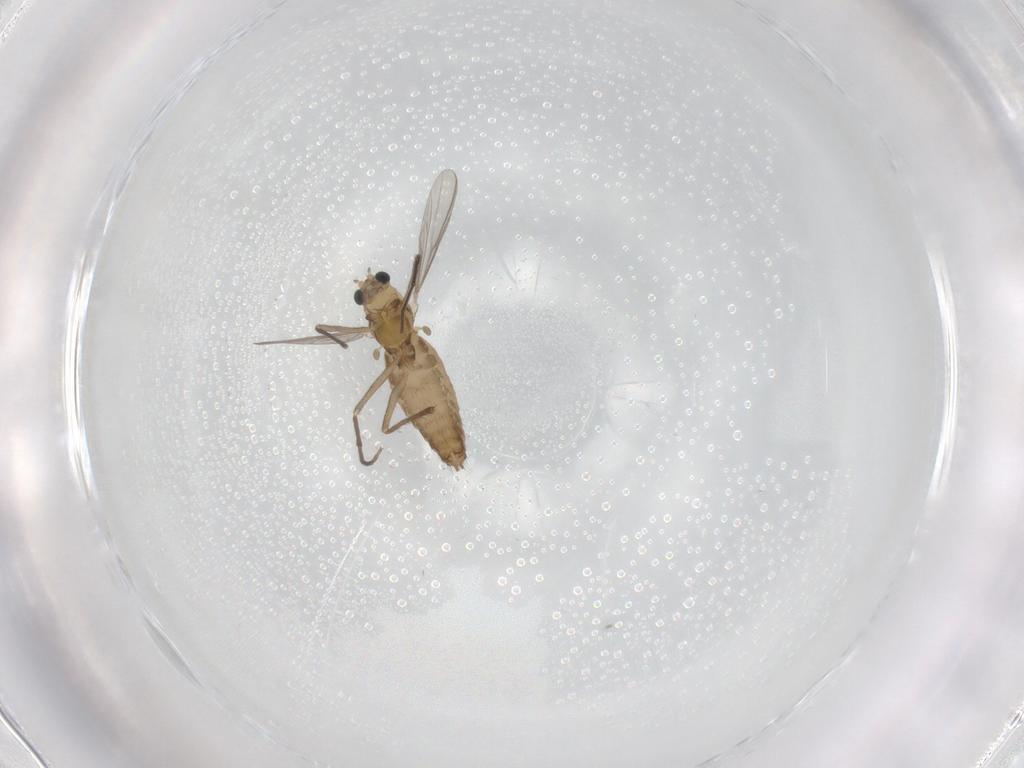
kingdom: Animalia
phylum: Arthropoda
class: Insecta
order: Diptera
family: Chironomidae
